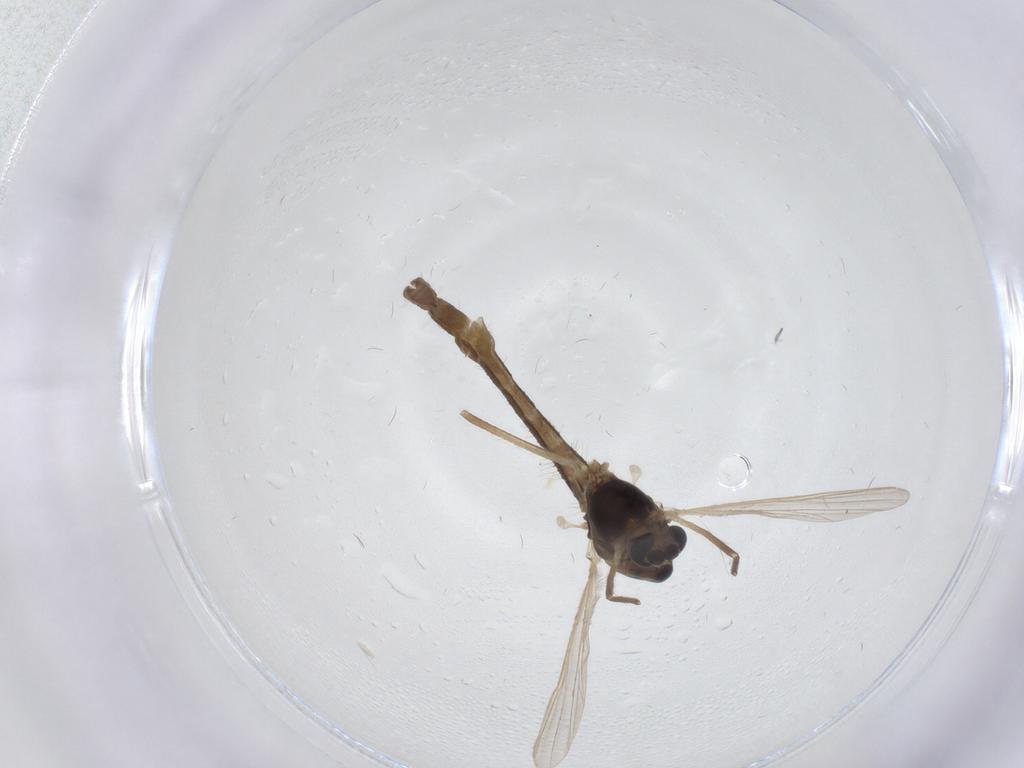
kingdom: Animalia
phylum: Arthropoda
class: Insecta
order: Diptera
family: Chironomidae
